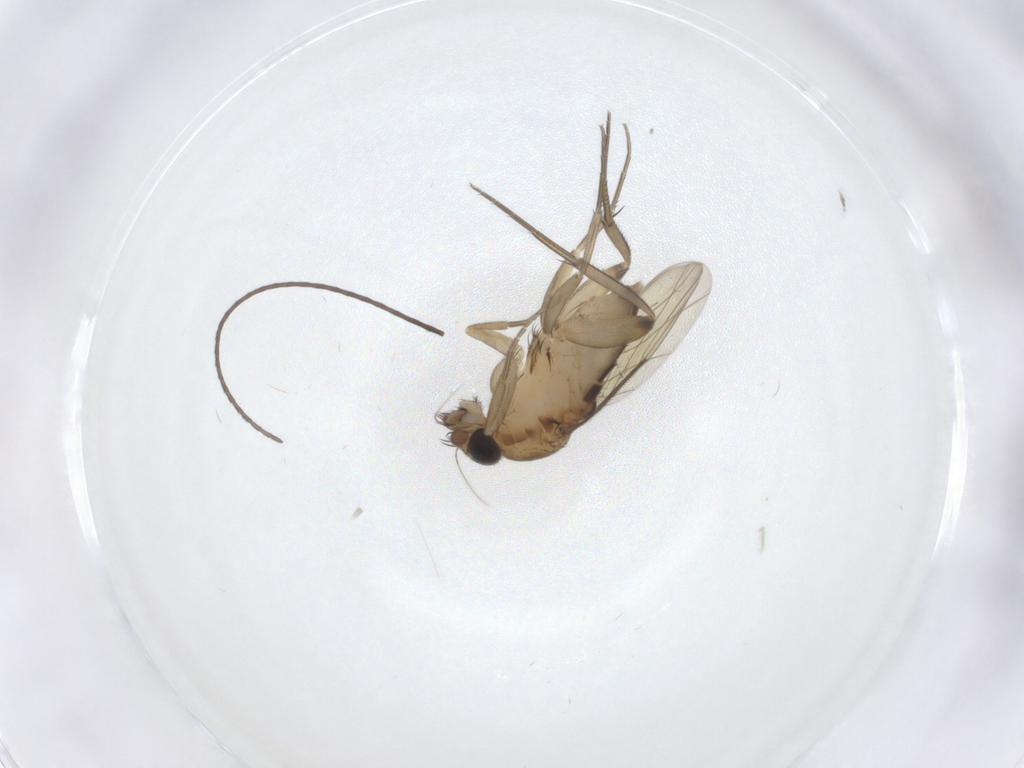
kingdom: Animalia
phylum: Arthropoda
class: Insecta
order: Diptera
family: Phoridae
